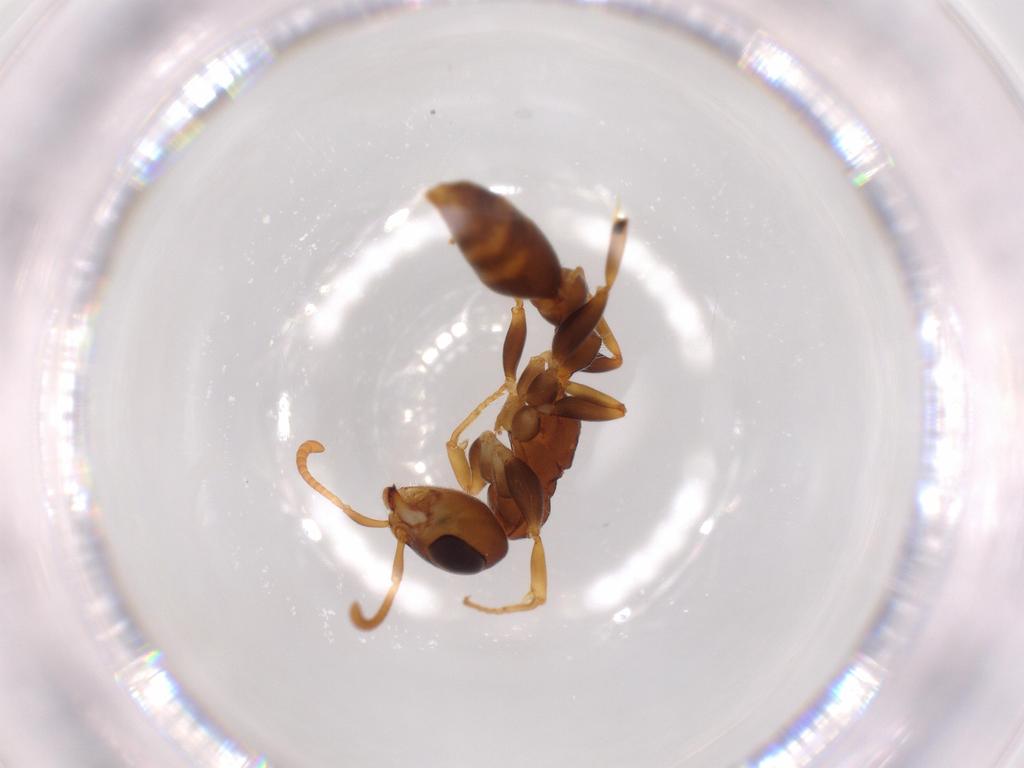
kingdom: Animalia
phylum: Arthropoda
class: Insecta
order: Hymenoptera
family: Formicidae
